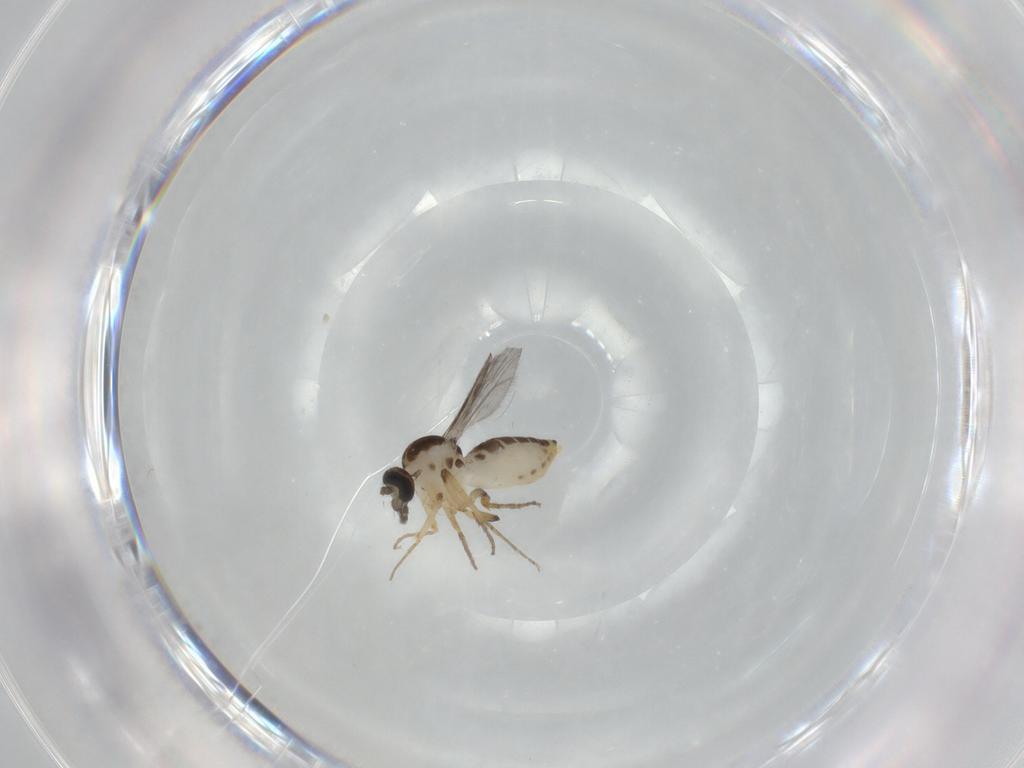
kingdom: Animalia
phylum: Arthropoda
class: Insecta
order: Diptera
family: Ceratopogonidae
